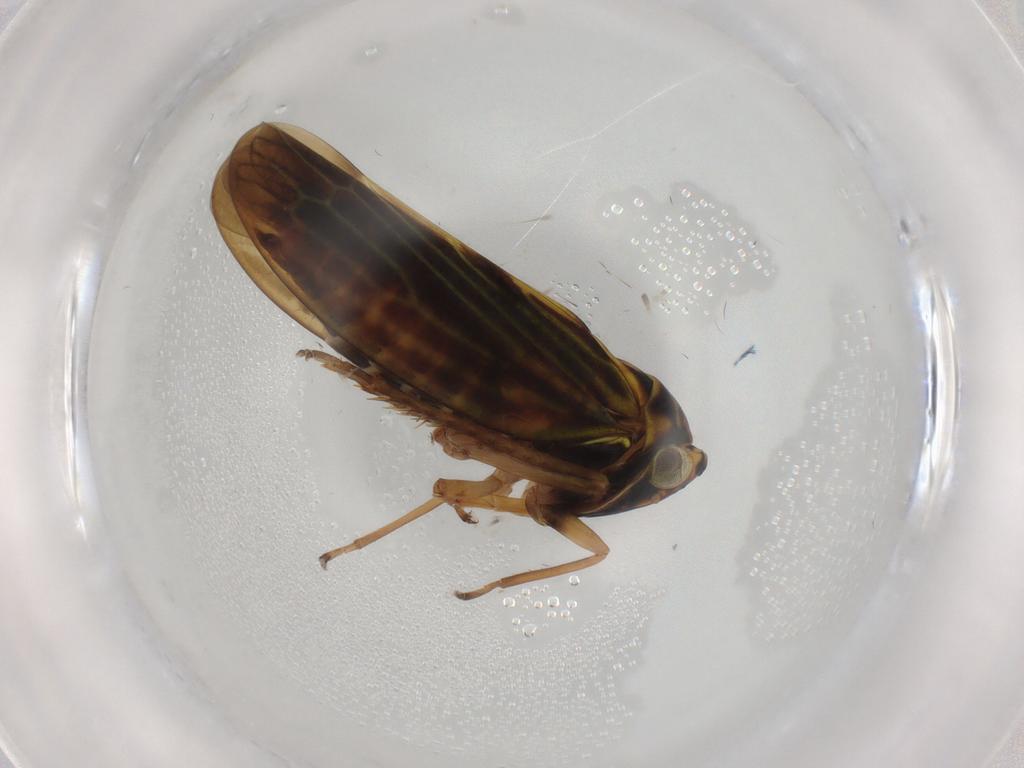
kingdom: Animalia
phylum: Arthropoda
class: Insecta
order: Hemiptera
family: Cicadellidae
